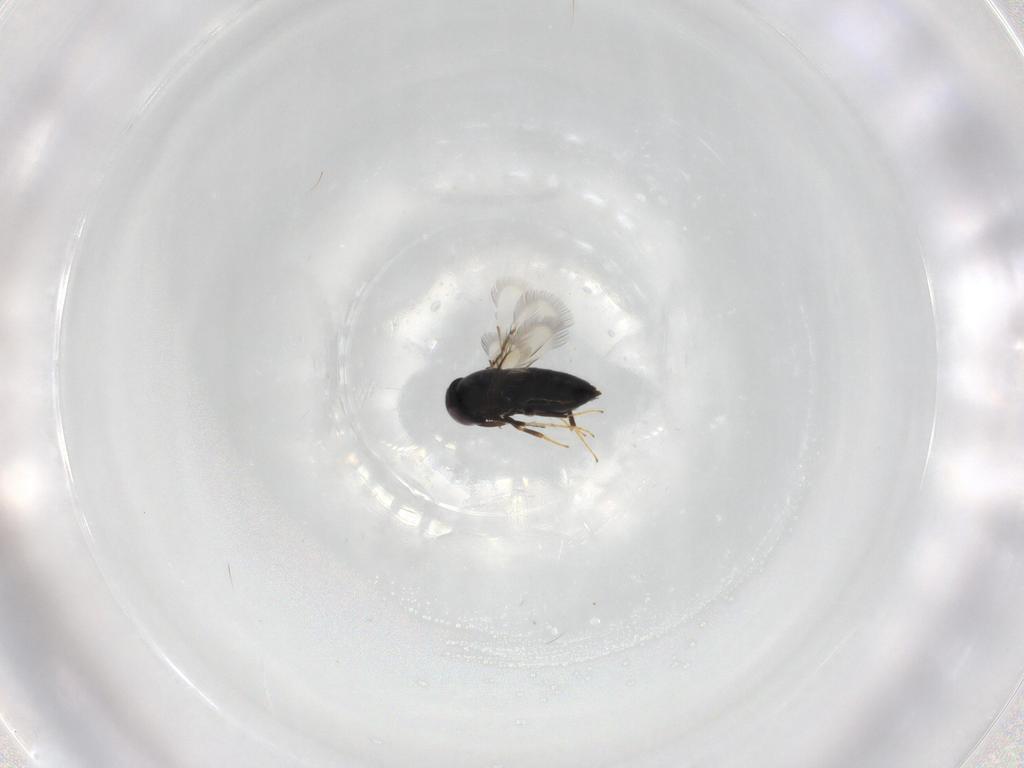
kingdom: Animalia
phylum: Arthropoda
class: Insecta
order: Hymenoptera
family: Signiphoridae
